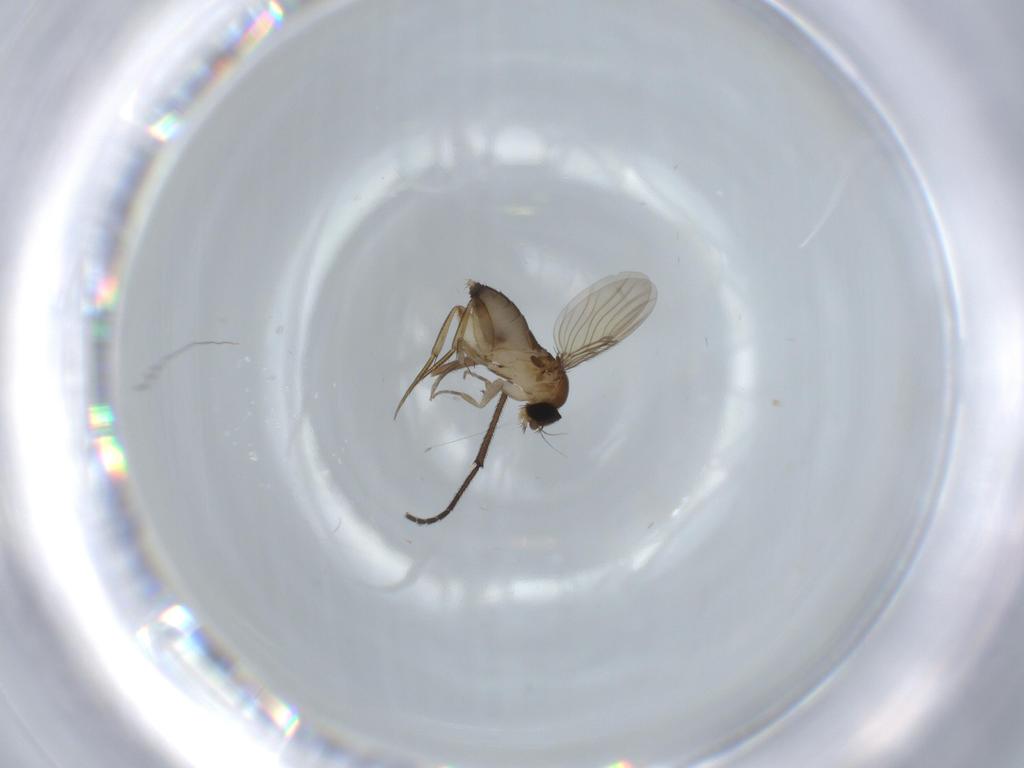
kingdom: Animalia
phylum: Arthropoda
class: Insecta
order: Diptera
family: Phoridae
